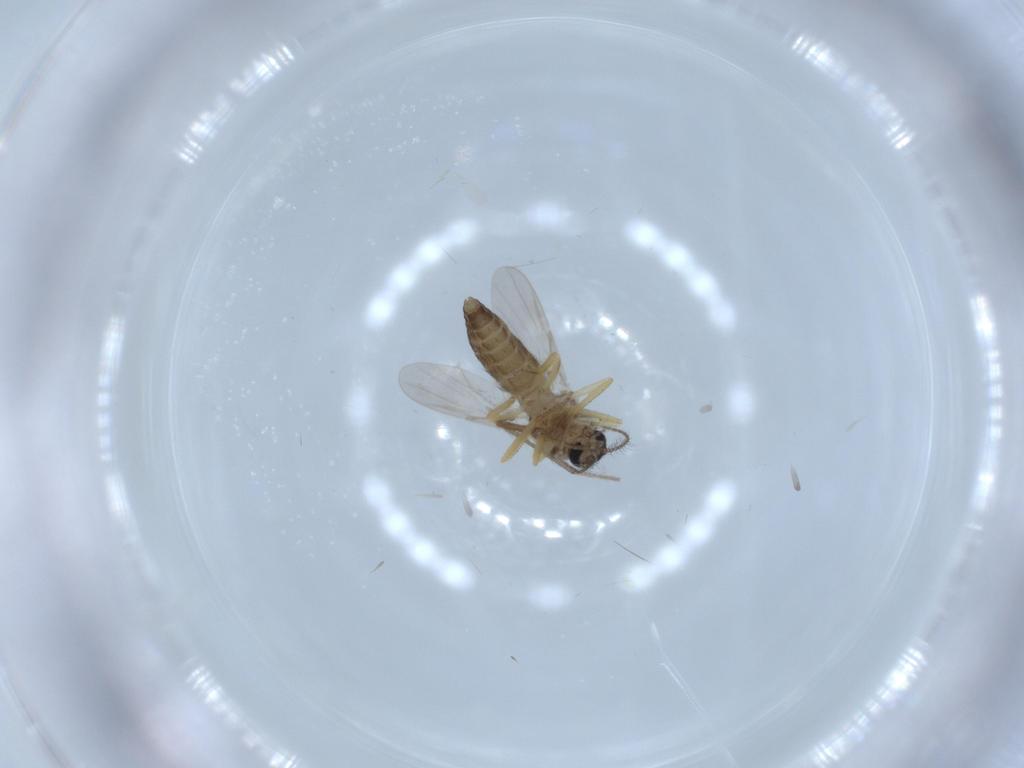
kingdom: Animalia
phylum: Arthropoda
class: Insecta
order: Diptera
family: Ceratopogonidae
